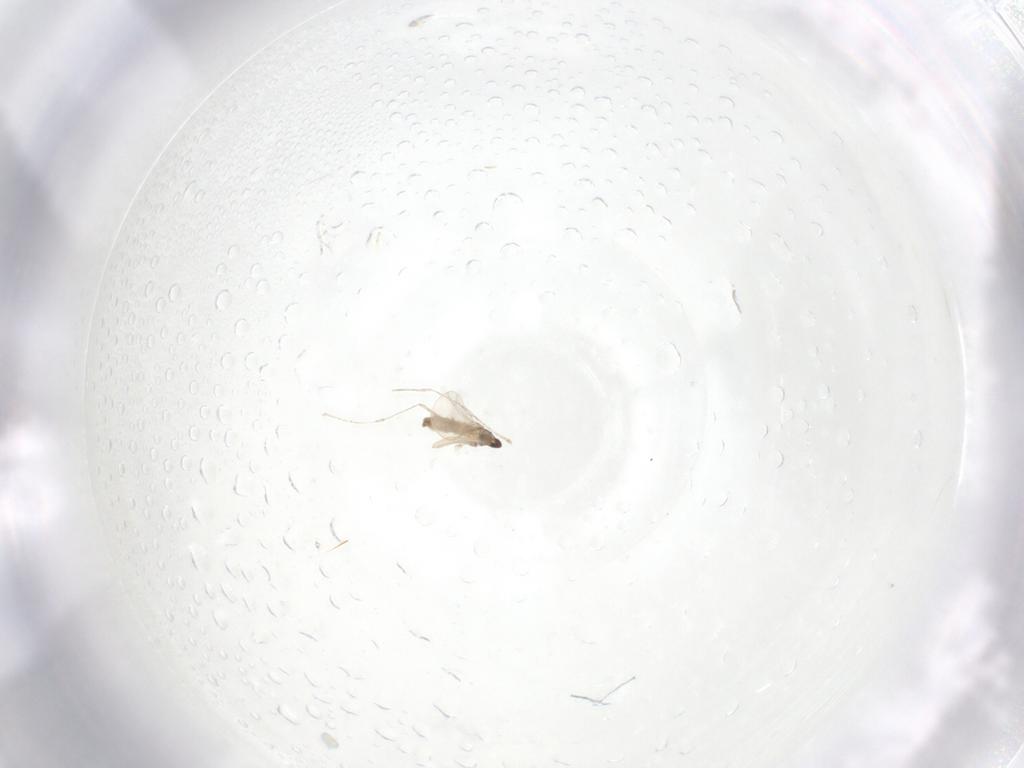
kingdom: Animalia
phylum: Arthropoda
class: Insecta
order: Diptera
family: Cecidomyiidae
